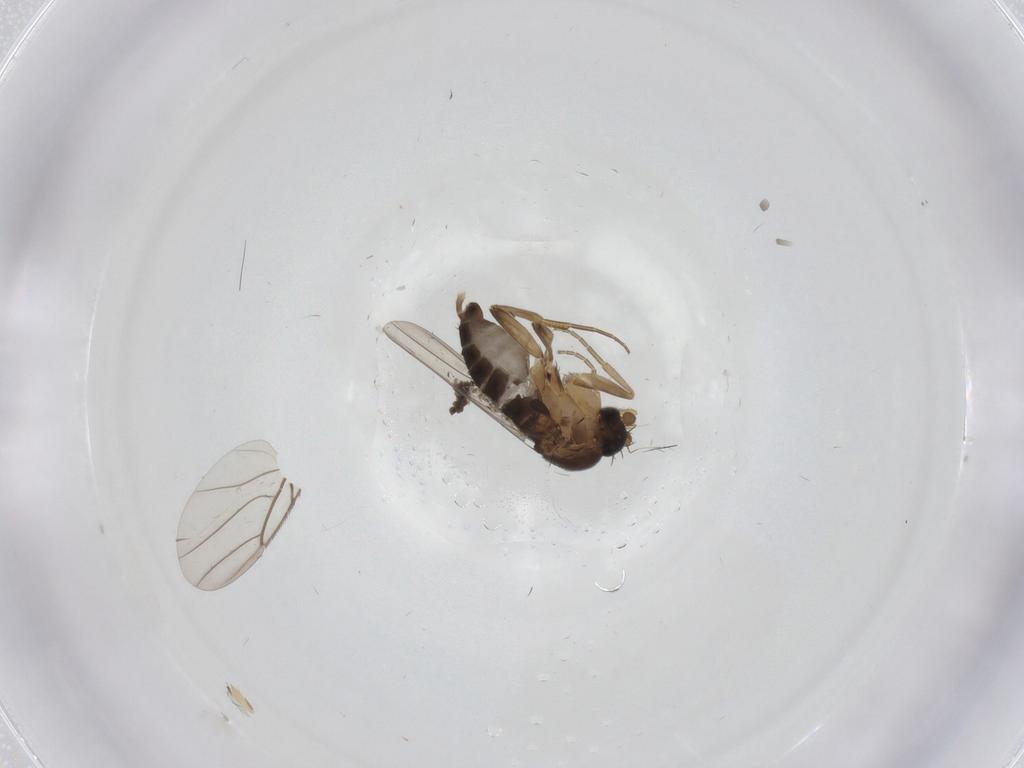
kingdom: Animalia
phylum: Arthropoda
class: Insecta
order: Diptera
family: Phoridae
